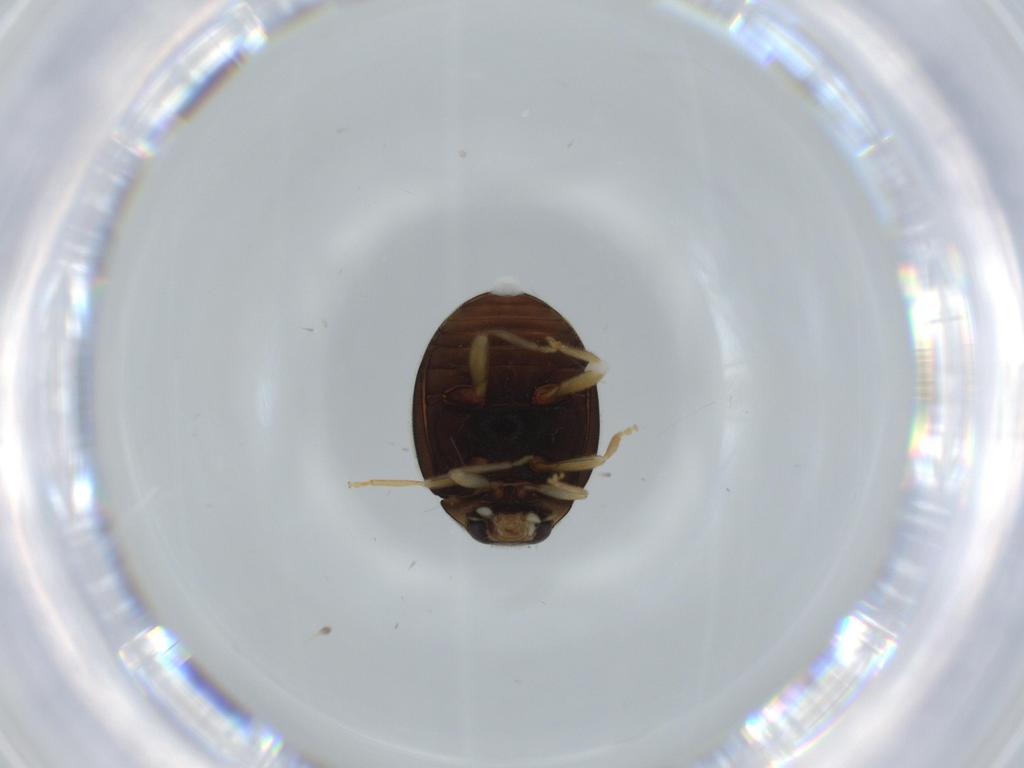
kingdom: Animalia
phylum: Arthropoda
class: Insecta
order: Coleoptera
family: Coccinellidae
